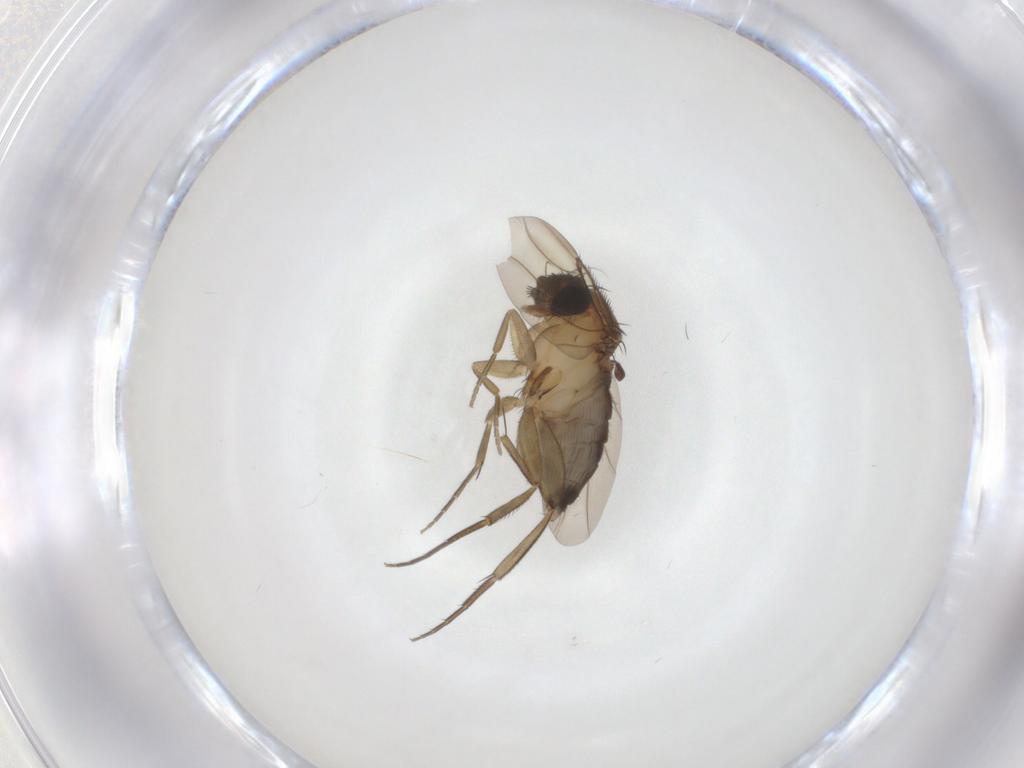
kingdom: Animalia
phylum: Arthropoda
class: Insecta
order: Diptera
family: Phoridae
